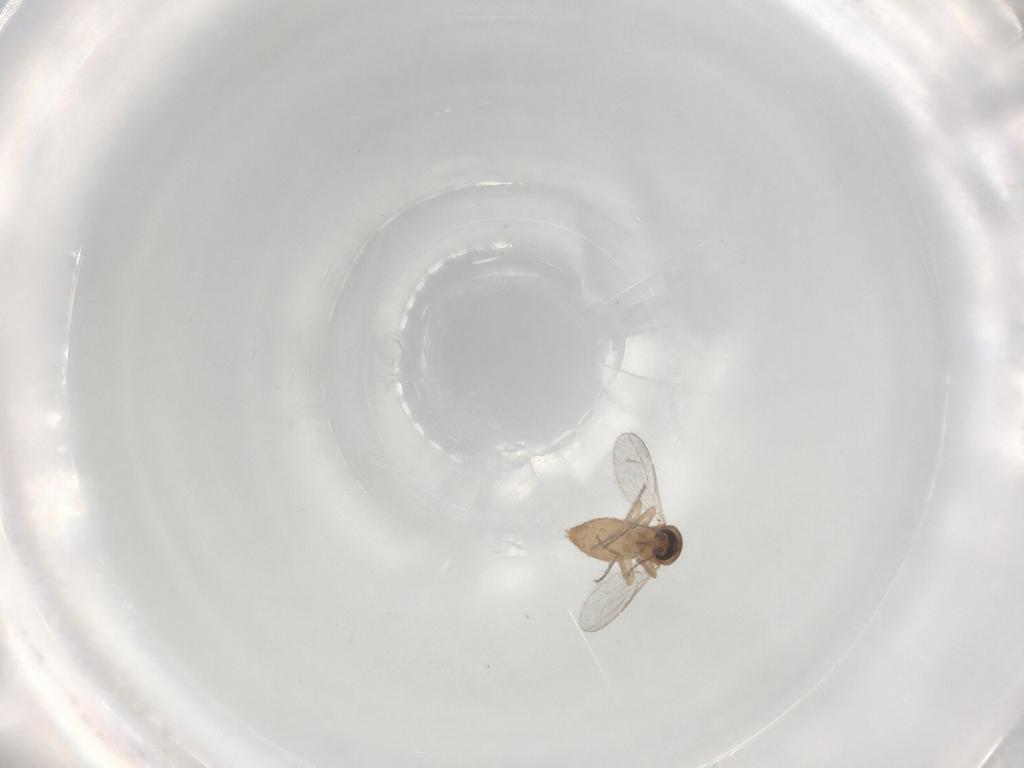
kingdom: Animalia
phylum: Arthropoda
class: Insecta
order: Diptera
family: Ceratopogonidae
